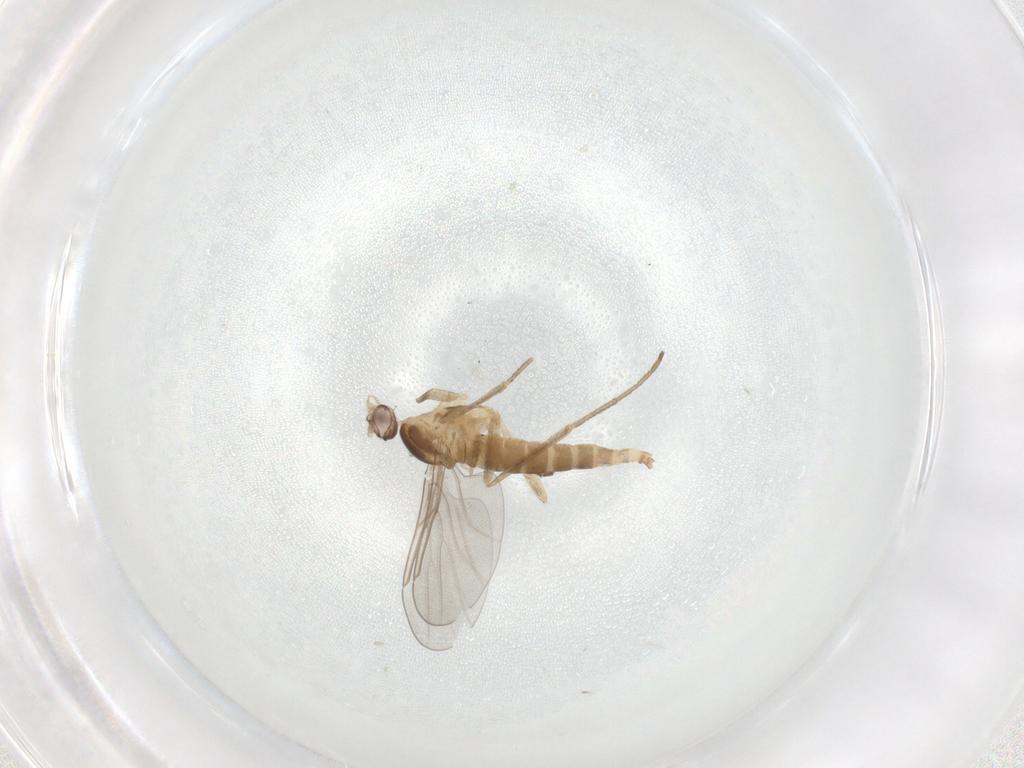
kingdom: Animalia
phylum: Arthropoda
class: Insecta
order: Diptera
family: Cecidomyiidae
